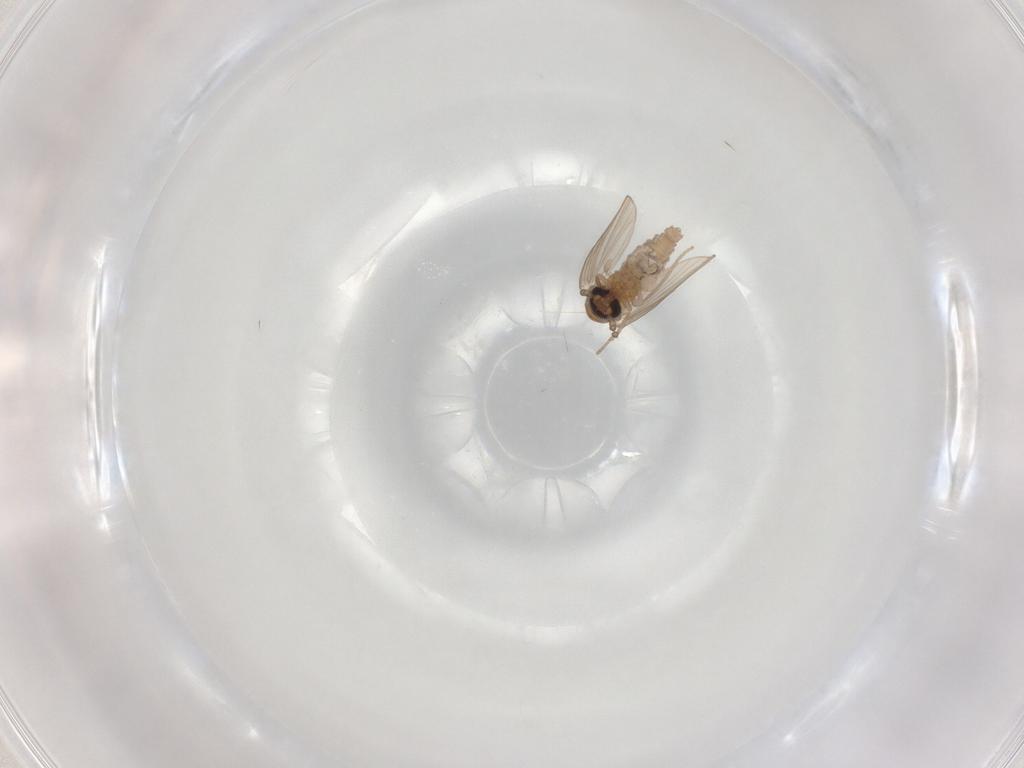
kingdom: Animalia
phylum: Arthropoda
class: Insecta
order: Diptera
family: Psychodidae
